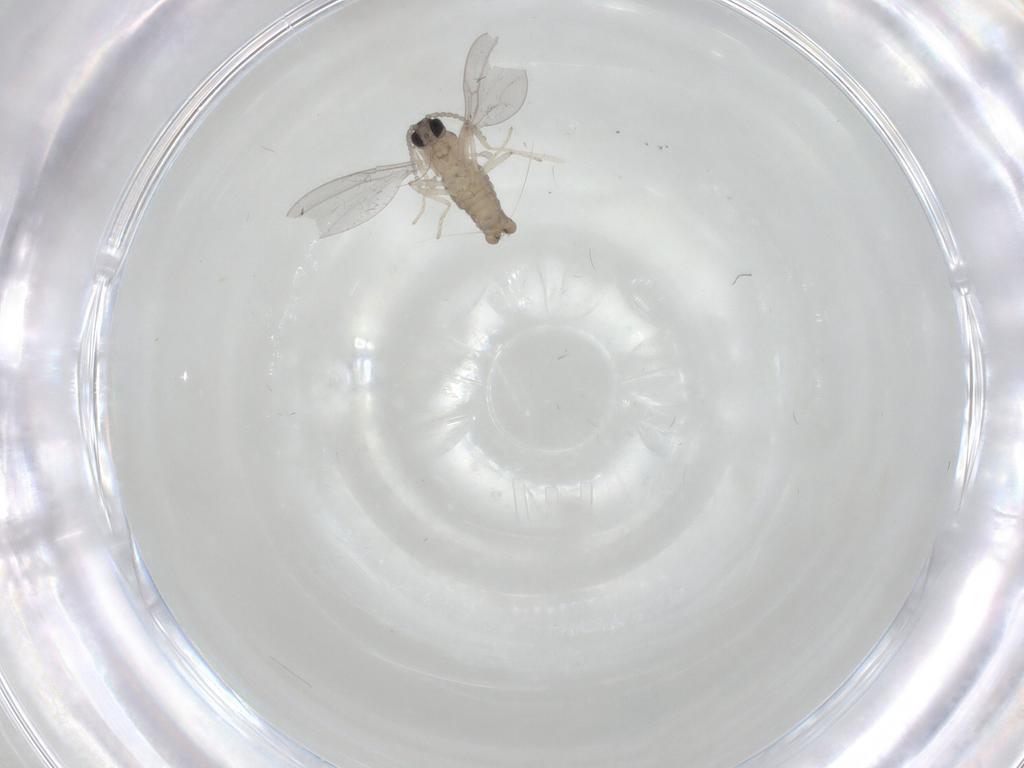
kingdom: Animalia
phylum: Arthropoda
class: Insecta
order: Diptera
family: Cecidomyiidae
